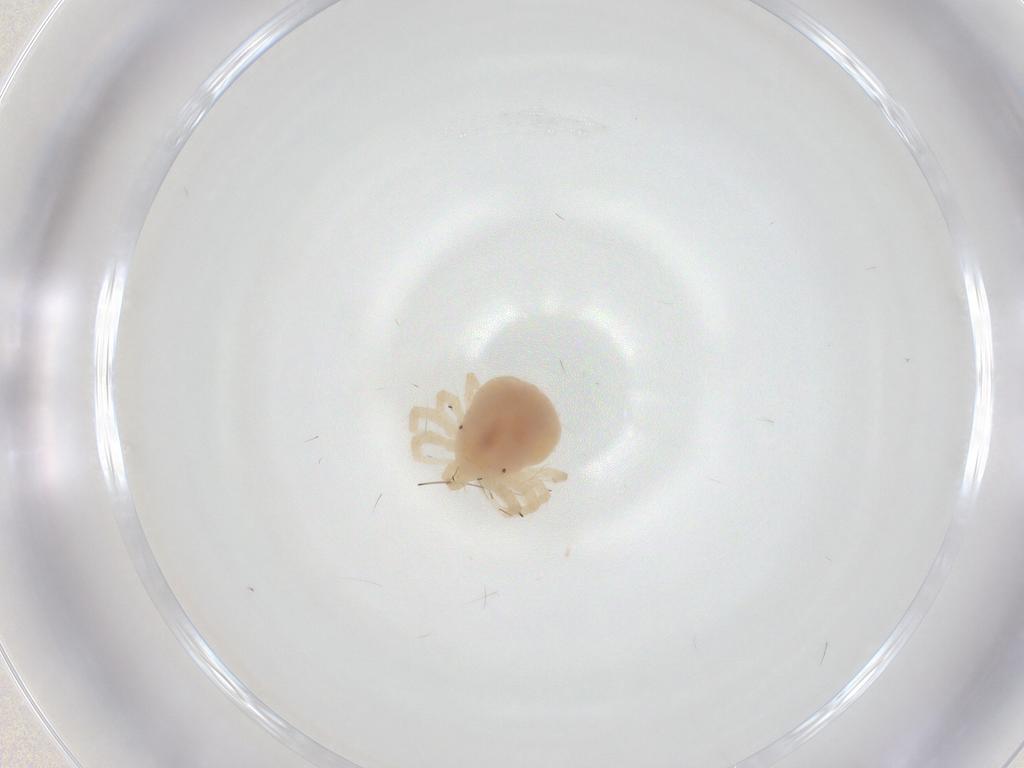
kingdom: Animalia
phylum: Arthropoda
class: Arachnida
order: Trombidiformes
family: Anystidae
